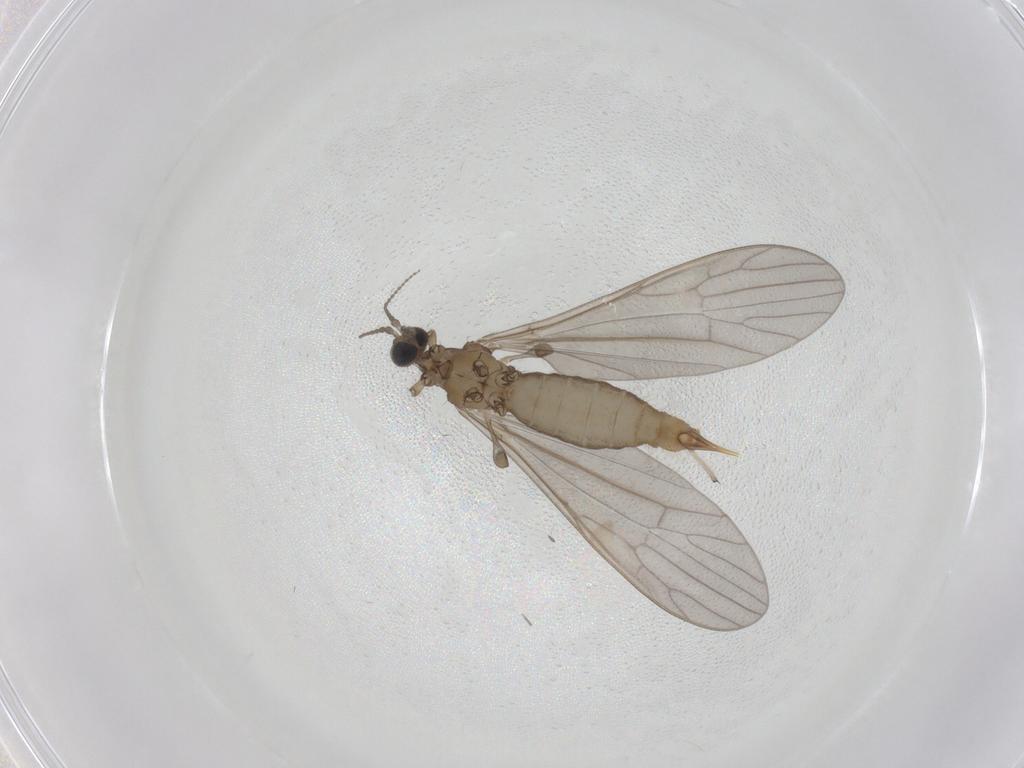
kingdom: Animalia
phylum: Arthropoda
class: Insecta
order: Diptera
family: Limoniidae
